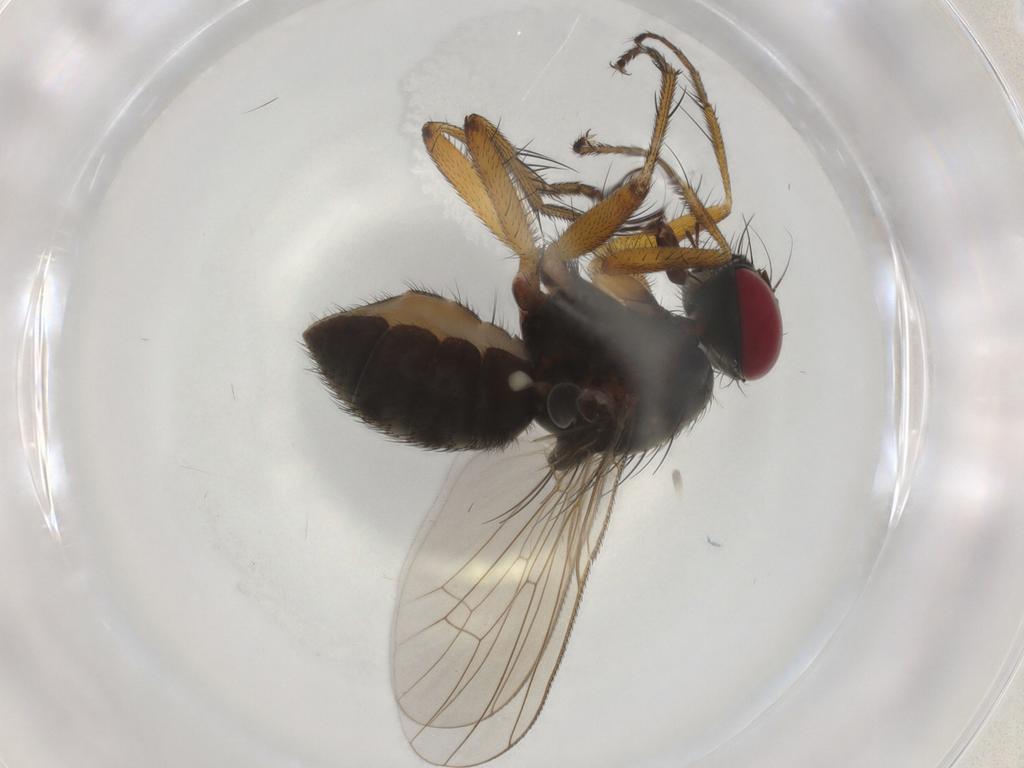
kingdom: Animalia
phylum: Arthropoda
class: Insecta
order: Diptera
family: Muscidae
